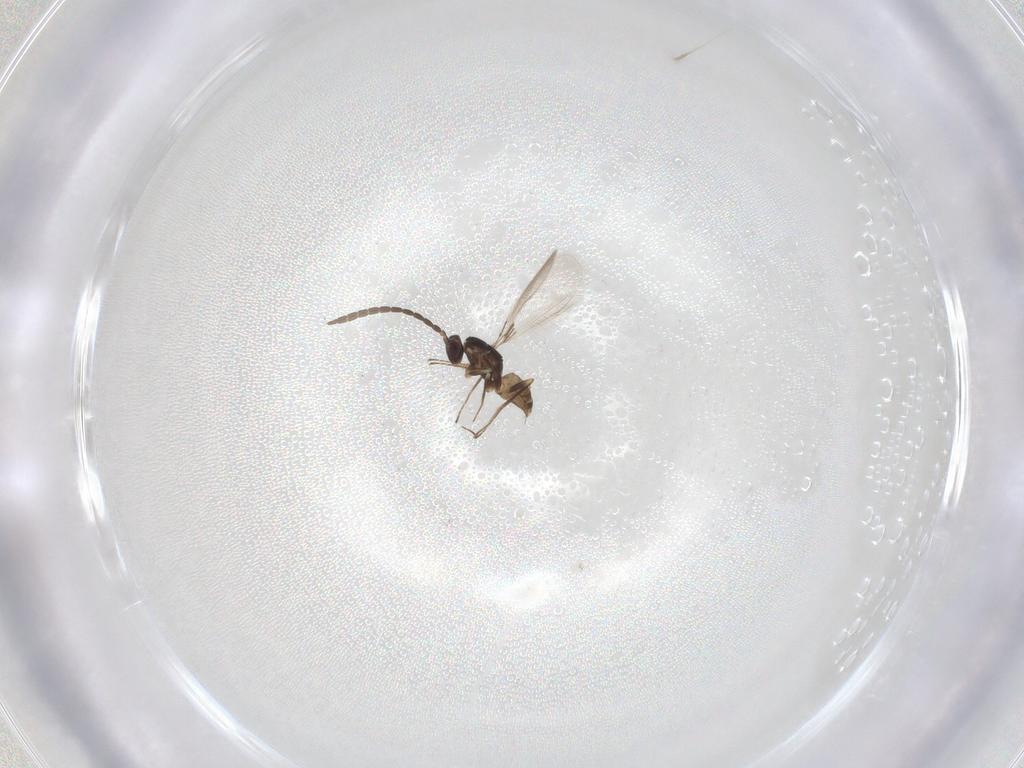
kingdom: Animalia
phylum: Arthropoda
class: Insecta
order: Hymenoptera
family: Mymaridae
